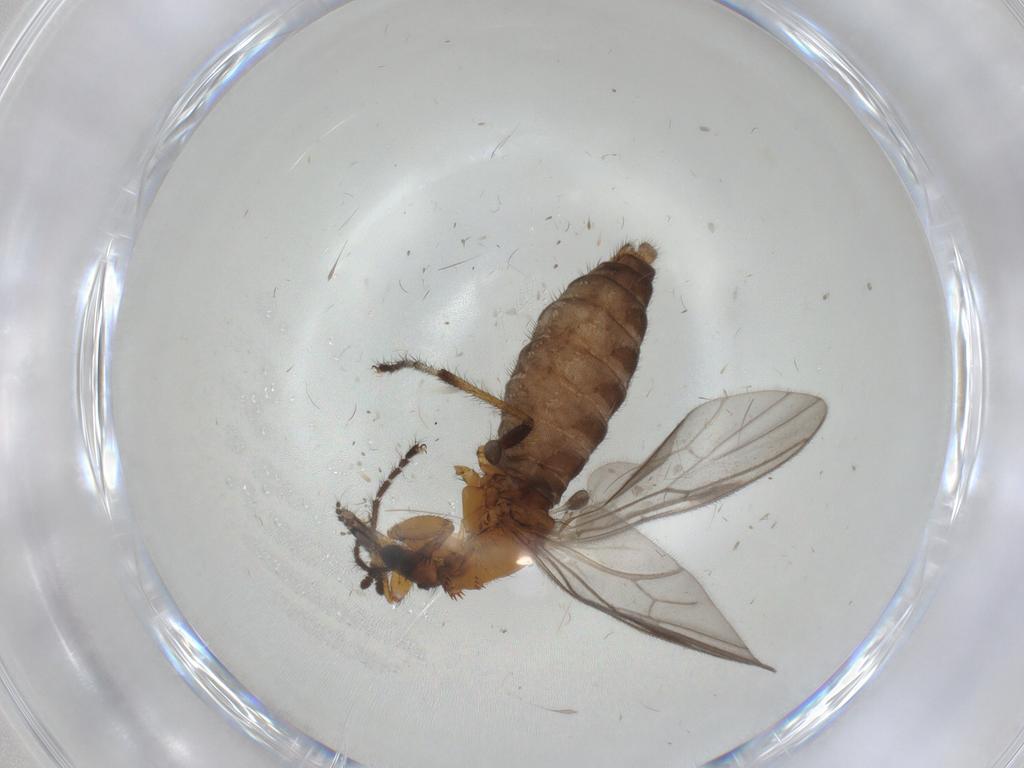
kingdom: Animalia
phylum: Arthropoda
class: Insecta
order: Diptera
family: Bibionidae
